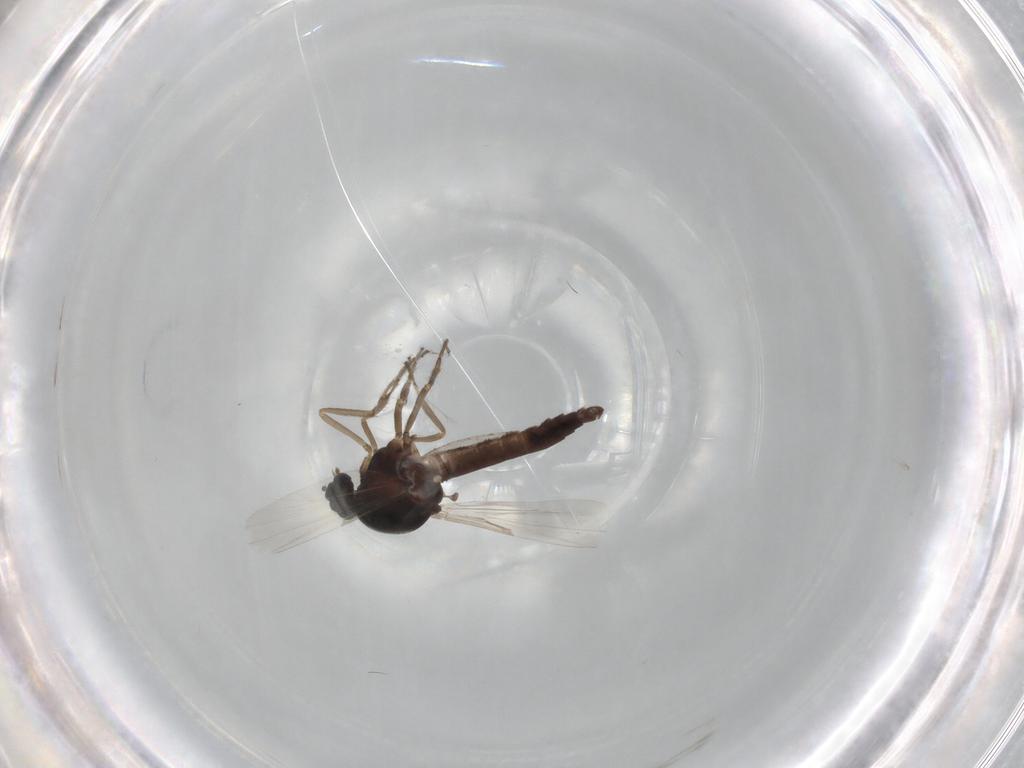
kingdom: Animalia
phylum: Arthropoda
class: Insecta
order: Diptera
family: Ceratopogonidae
